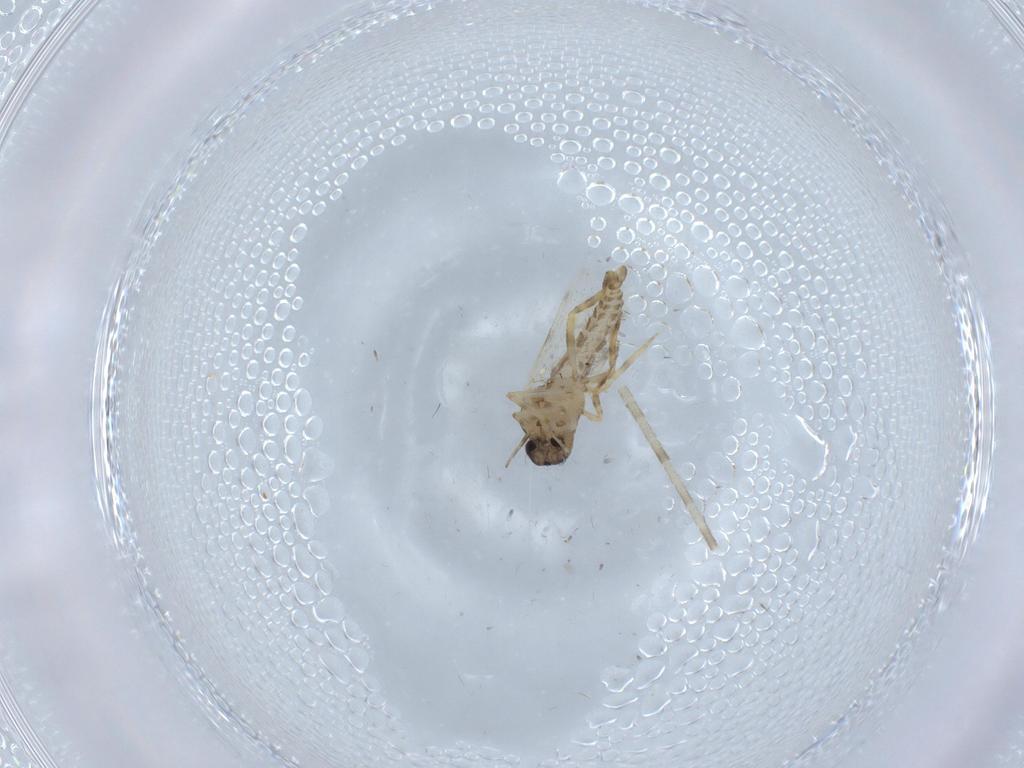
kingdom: Animalia
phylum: Arthropoda
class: Insecta
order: Diptera
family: Ceratopogonidae
